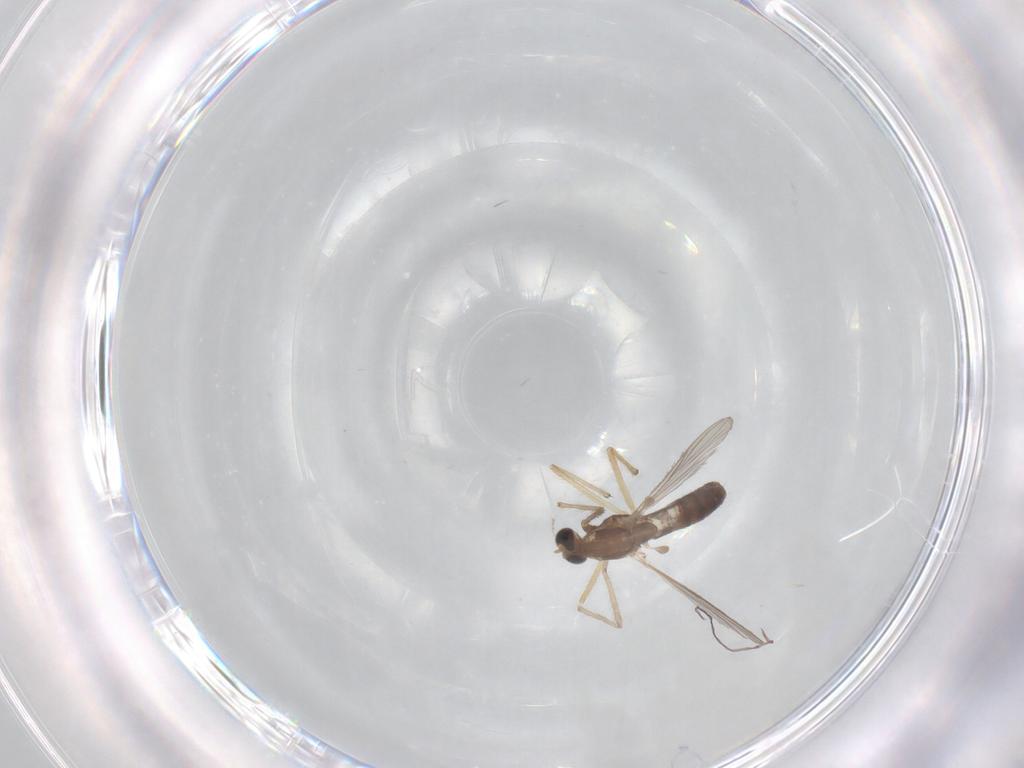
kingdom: Animalia
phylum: Arthropoda
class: Insecta
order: Diptera
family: Chironomidae
